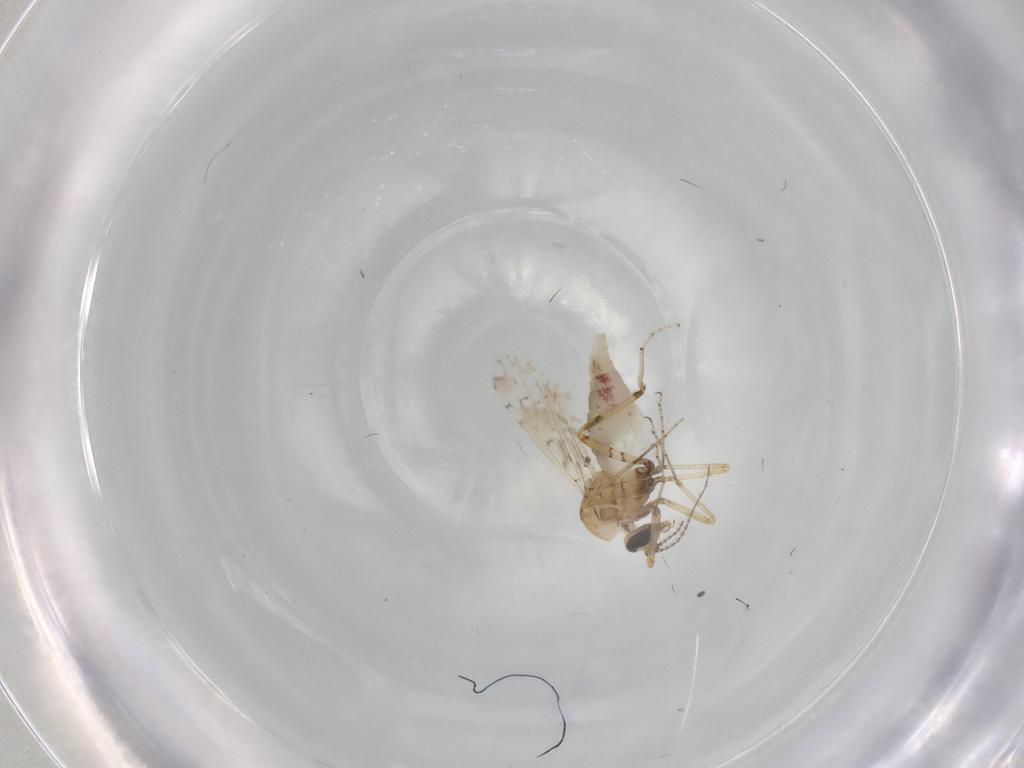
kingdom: Animalia
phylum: Arthropoda
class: Insecta
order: Diptera
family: Ceratopogonidae
